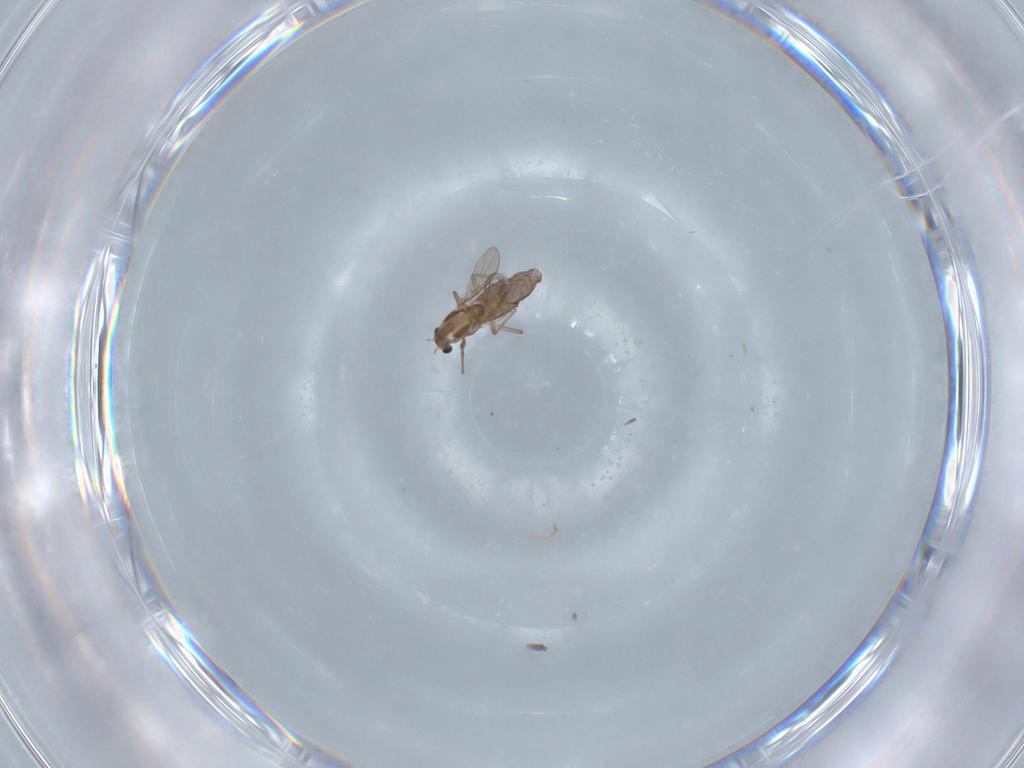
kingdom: Animalia
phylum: Arthropoda
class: Insecta
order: Diptera
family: Chironomidae
